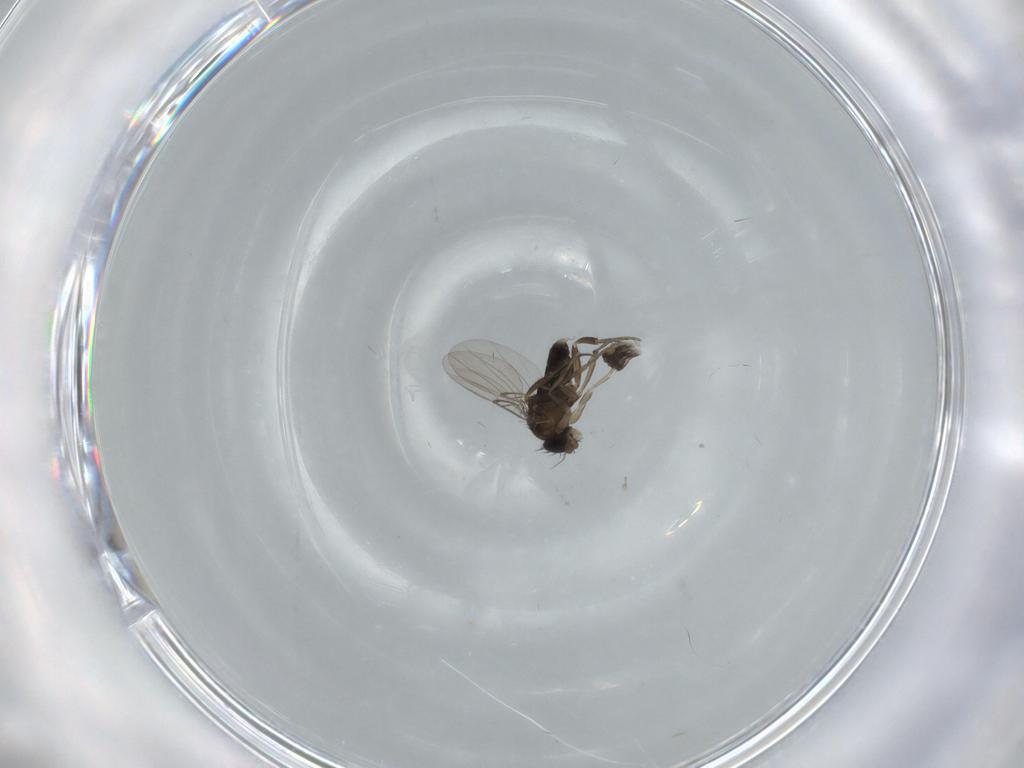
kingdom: Animalia
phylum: Arthropoda
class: Insecta
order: Diptera
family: Phoridae
